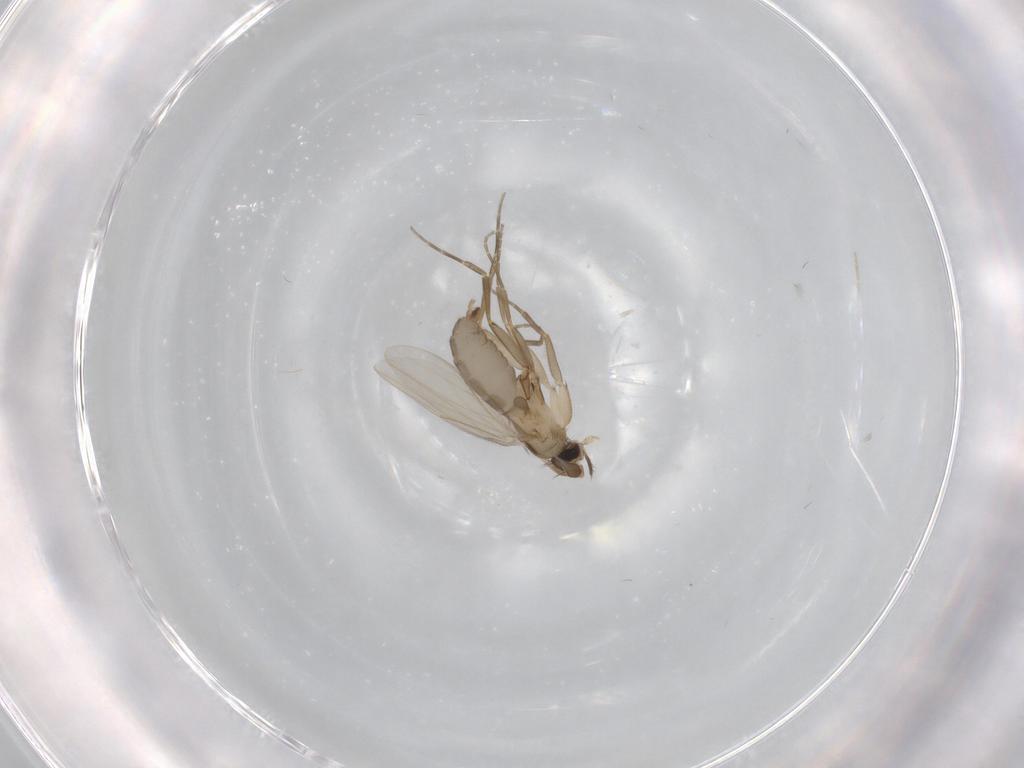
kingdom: Animalia
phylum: Arthropoda
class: Insecta
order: Diptera
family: Phoridae
